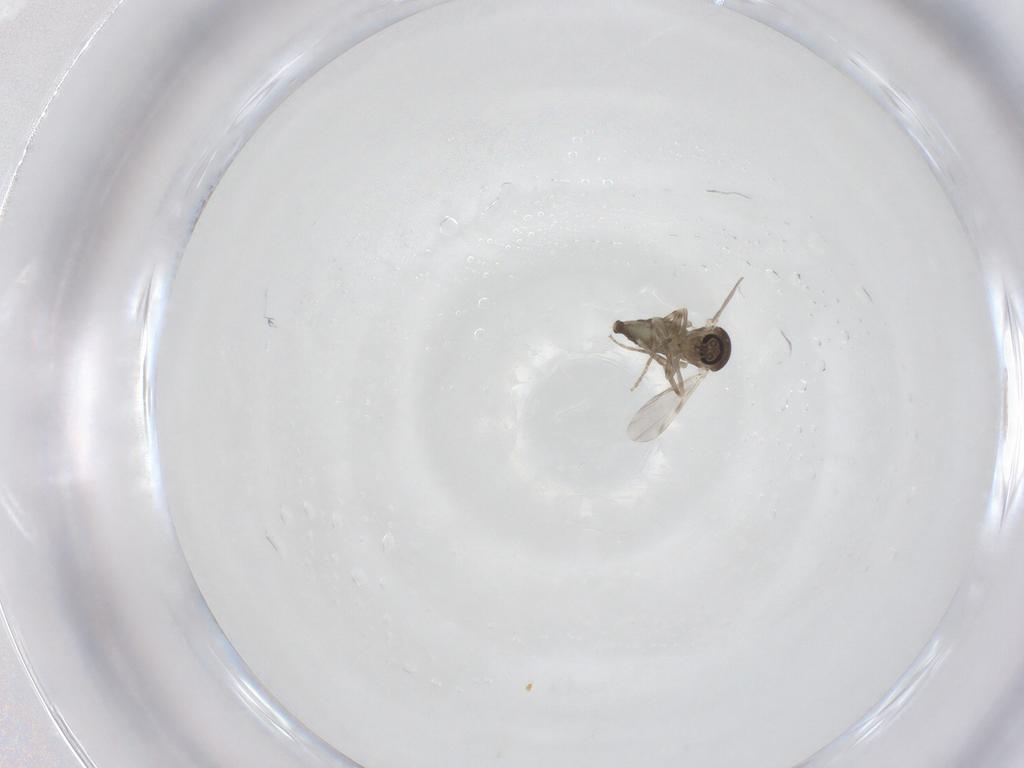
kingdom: Animalia
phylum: Arthropoda
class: Insecta
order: Diptera
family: Ceratopogonidae
